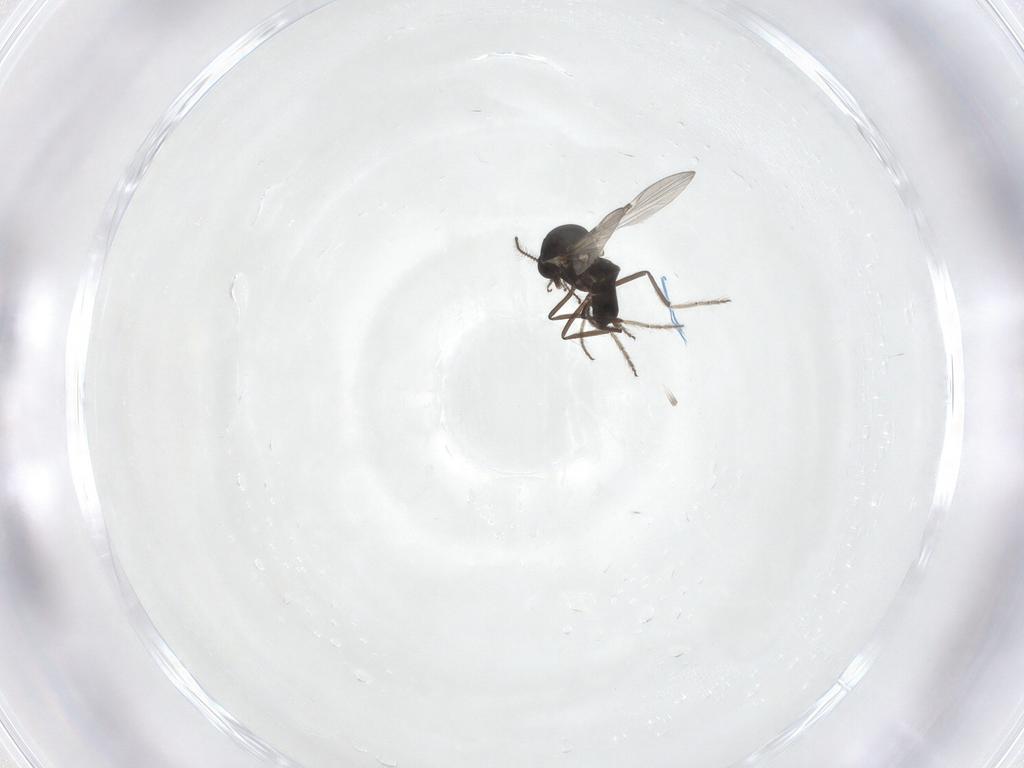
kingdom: Animalia
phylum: Arthropoda
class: Insecta
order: Diptera
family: Ceratopogonidae
